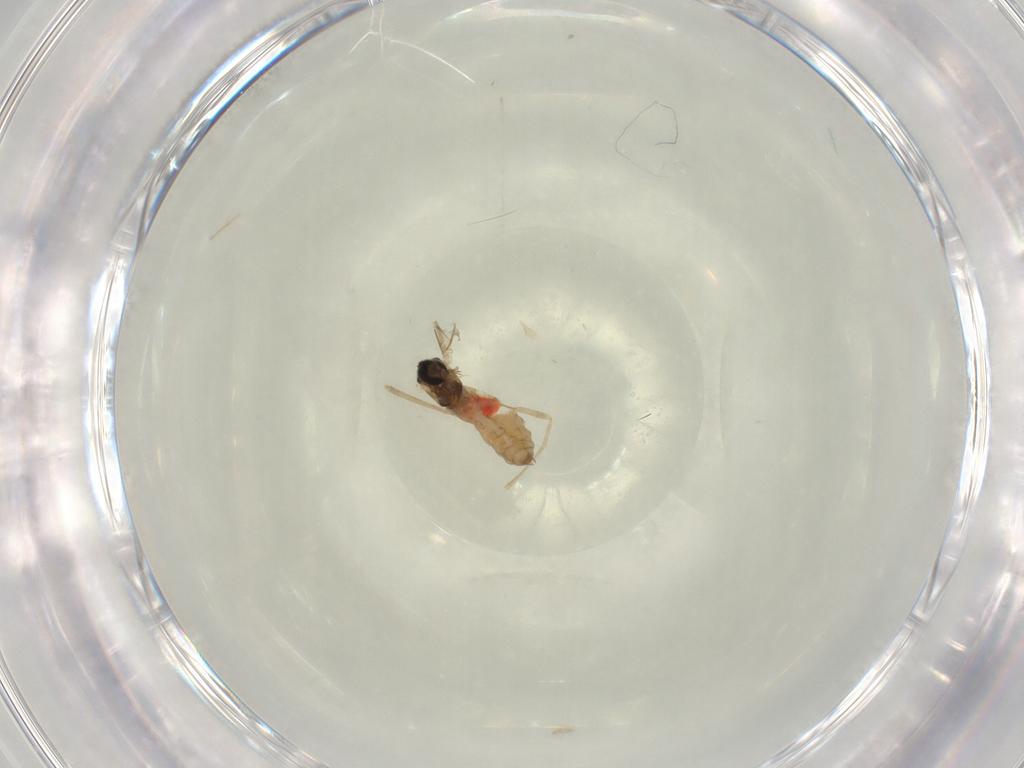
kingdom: Animalia
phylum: Arthropoda
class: Insecta
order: Diptera
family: Cecidomyiidae
